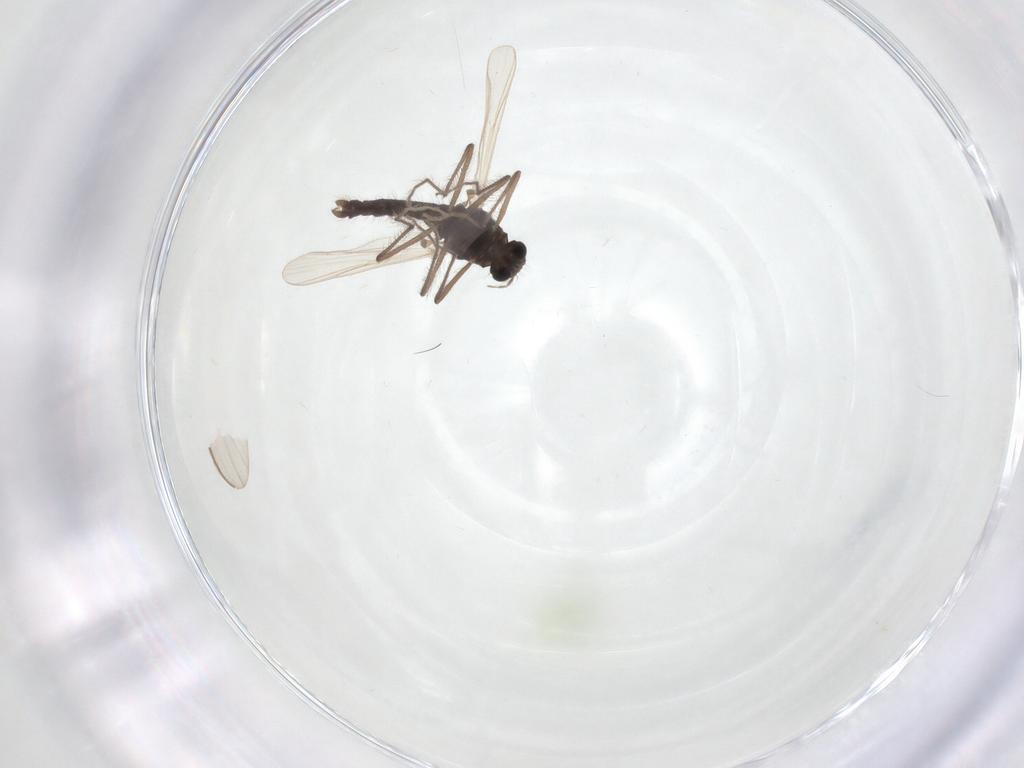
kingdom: Animalia
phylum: Arthropoda
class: Insecta
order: Diptera
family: Chironomidae
